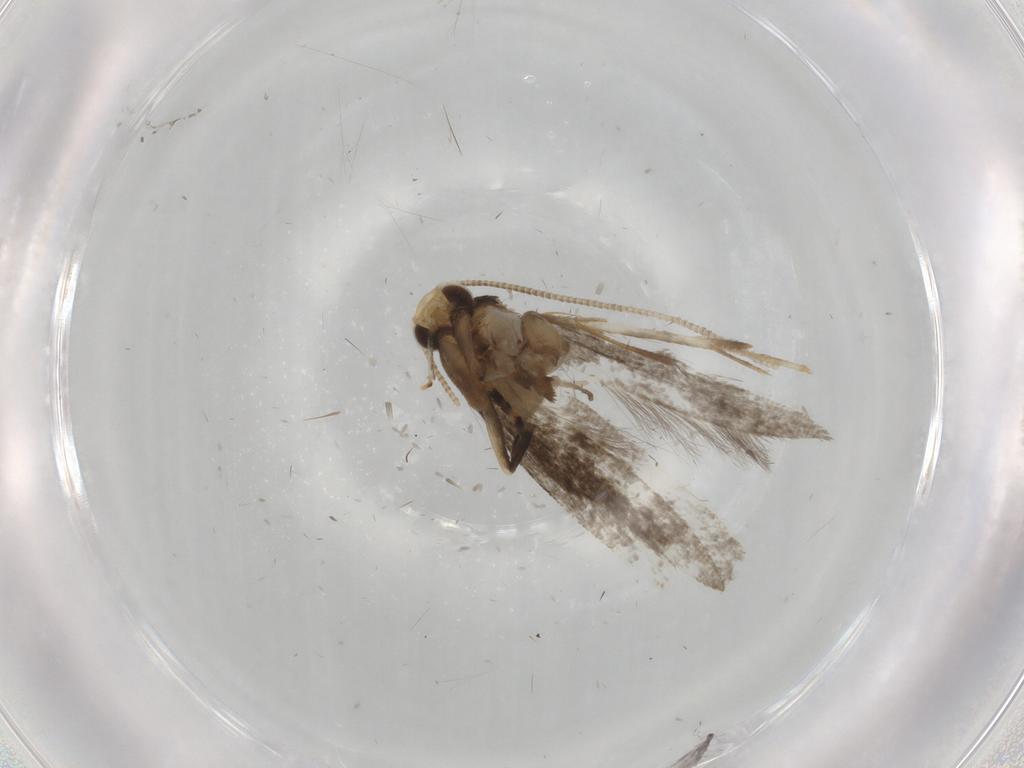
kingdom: Animalia
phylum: Arthropoda
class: Insecta
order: Lepidoptera
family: Tineidae
